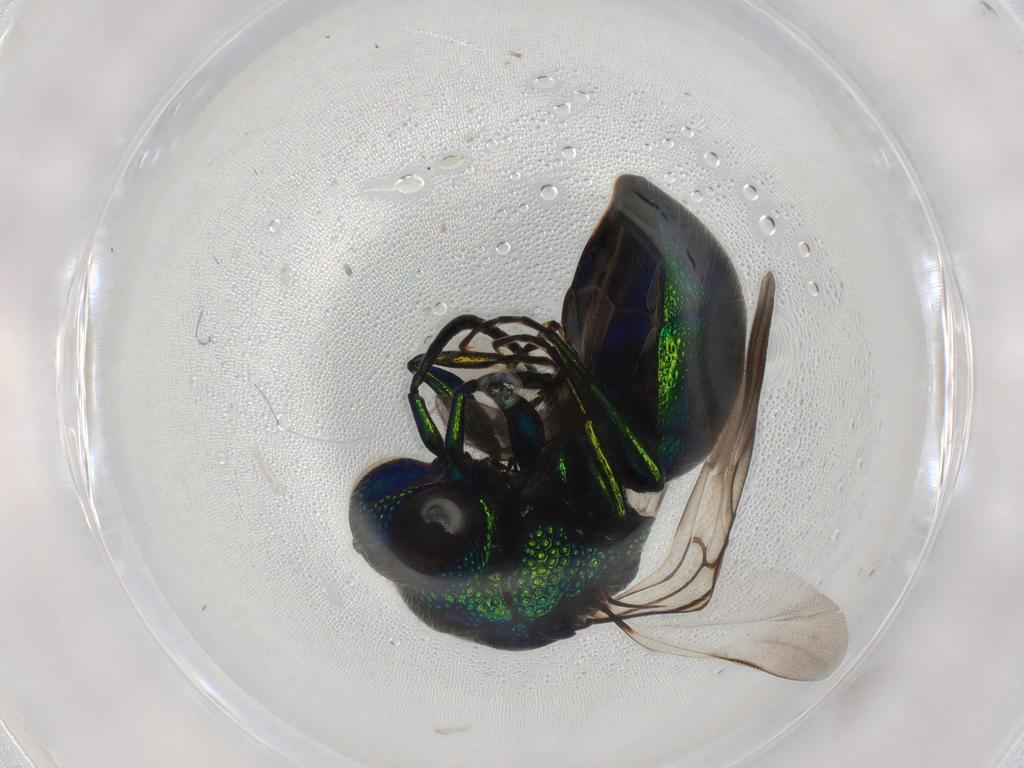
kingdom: Animalia
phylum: Arthropoda
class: Insecta
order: Hymenoptera
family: Chrysididae
